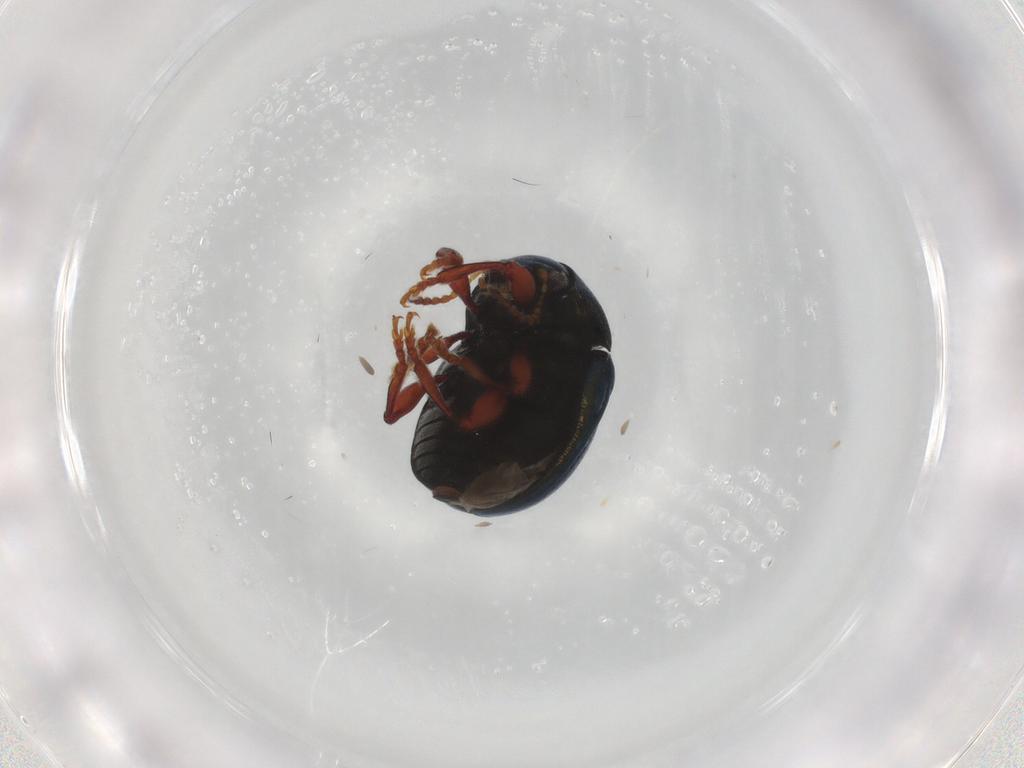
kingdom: Animalia
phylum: Arthropoda
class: Insecta
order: Coleoptera
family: Chrysomelidae
